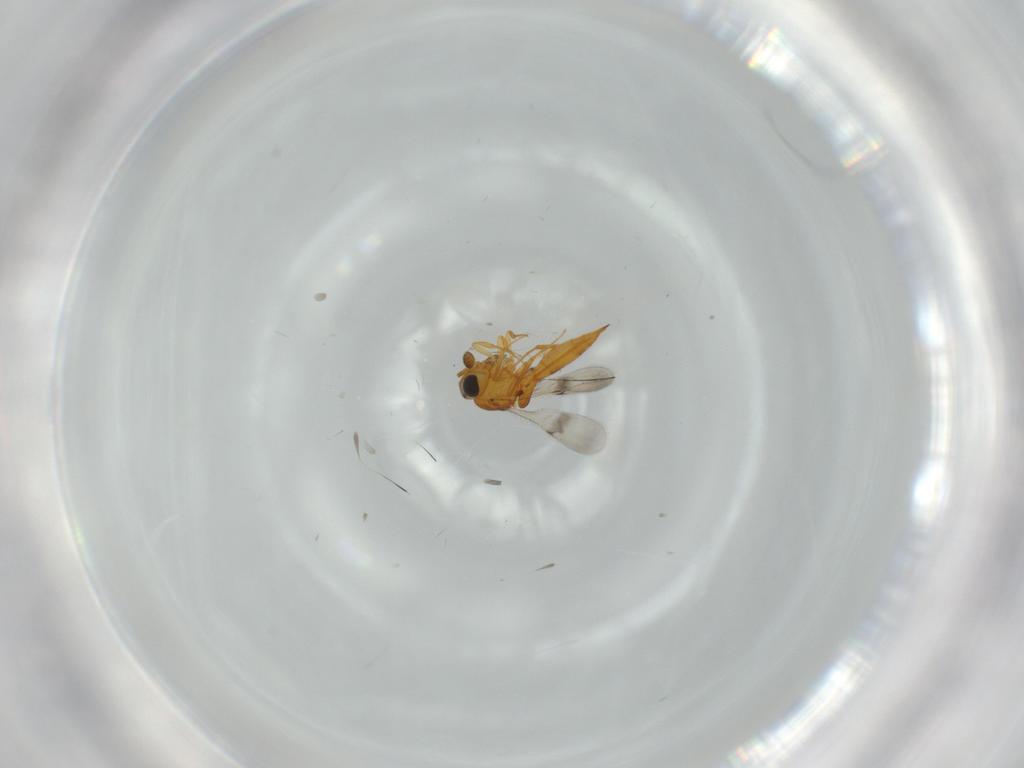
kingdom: Animalia
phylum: Arthropoda
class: Insecta
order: Hymenoptera
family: Scelionidae
